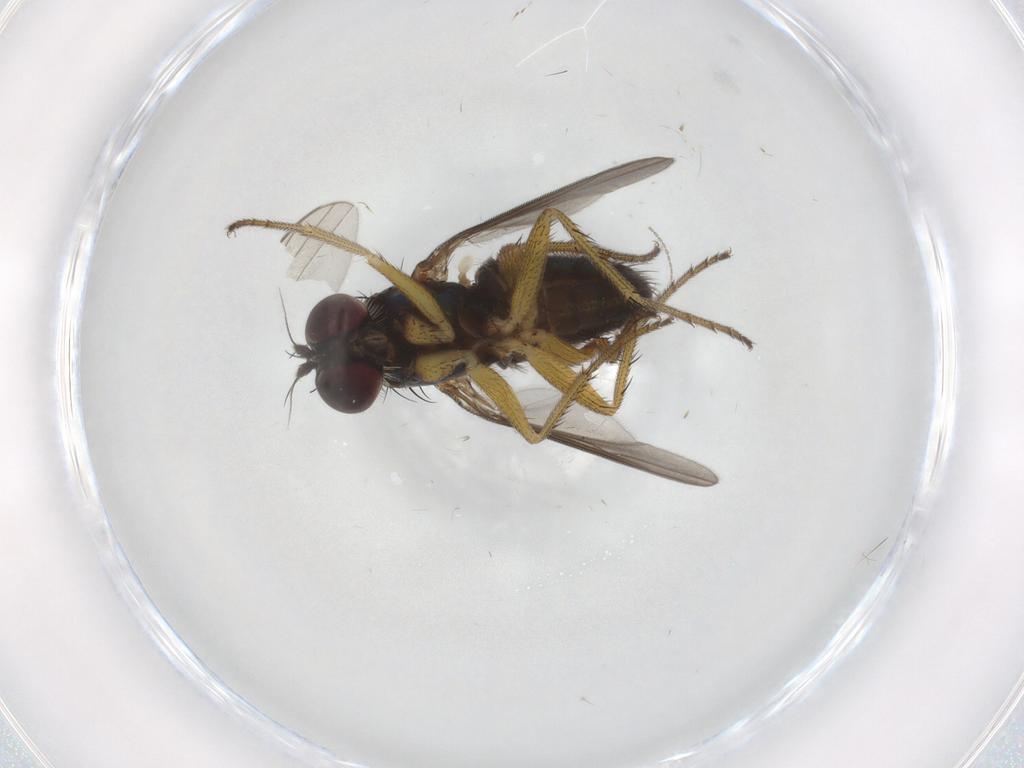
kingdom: Animalia
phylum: Arthropoda
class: Insecta
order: Diptera
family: Dolichopodidae
